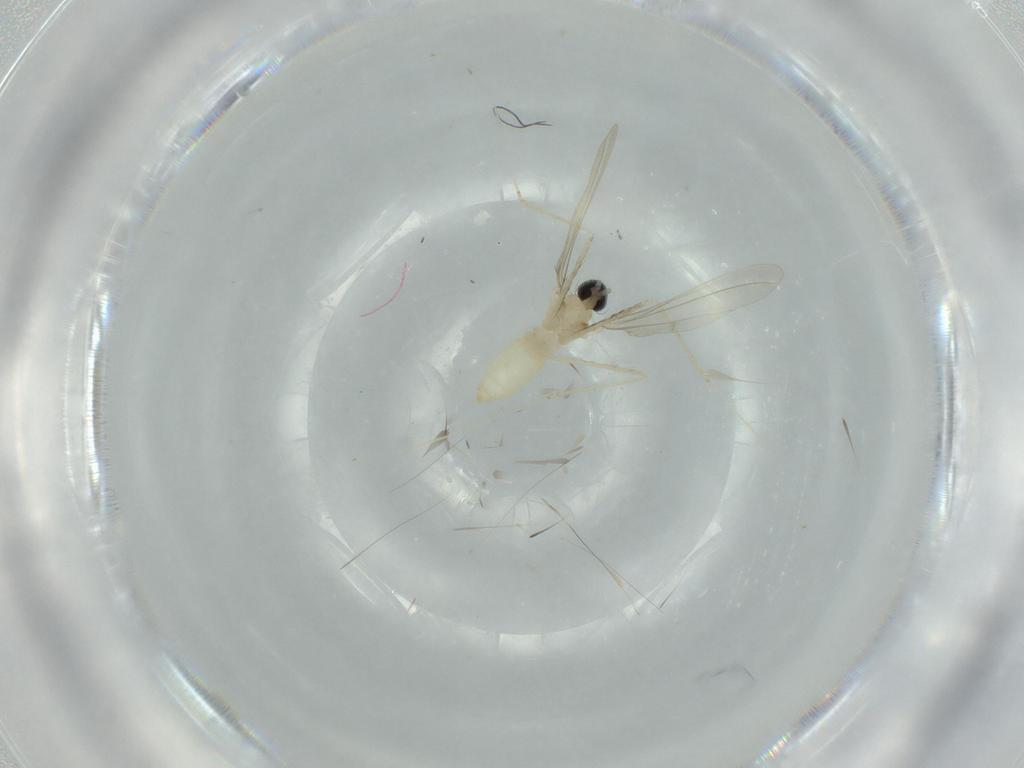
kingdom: Animalia
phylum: Arthropoda
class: Insecta
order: Diptera
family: Cecidomyiidae
